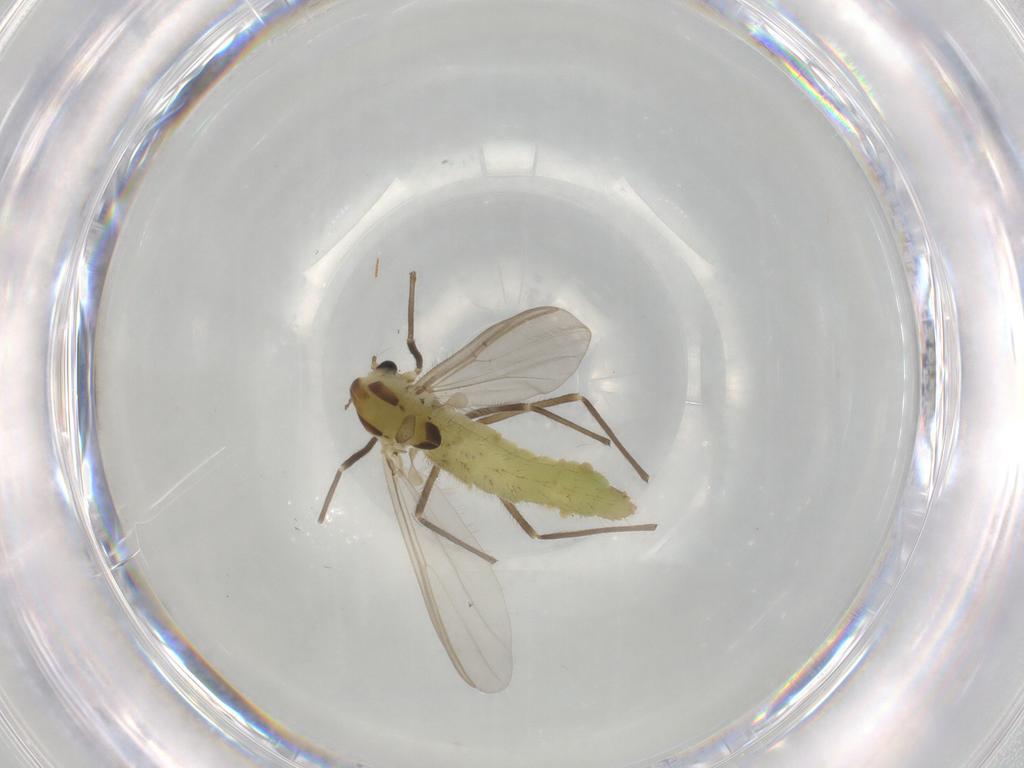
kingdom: Animalia
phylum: Arthropoda
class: Insecta
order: Diptera
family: Chironomidae
